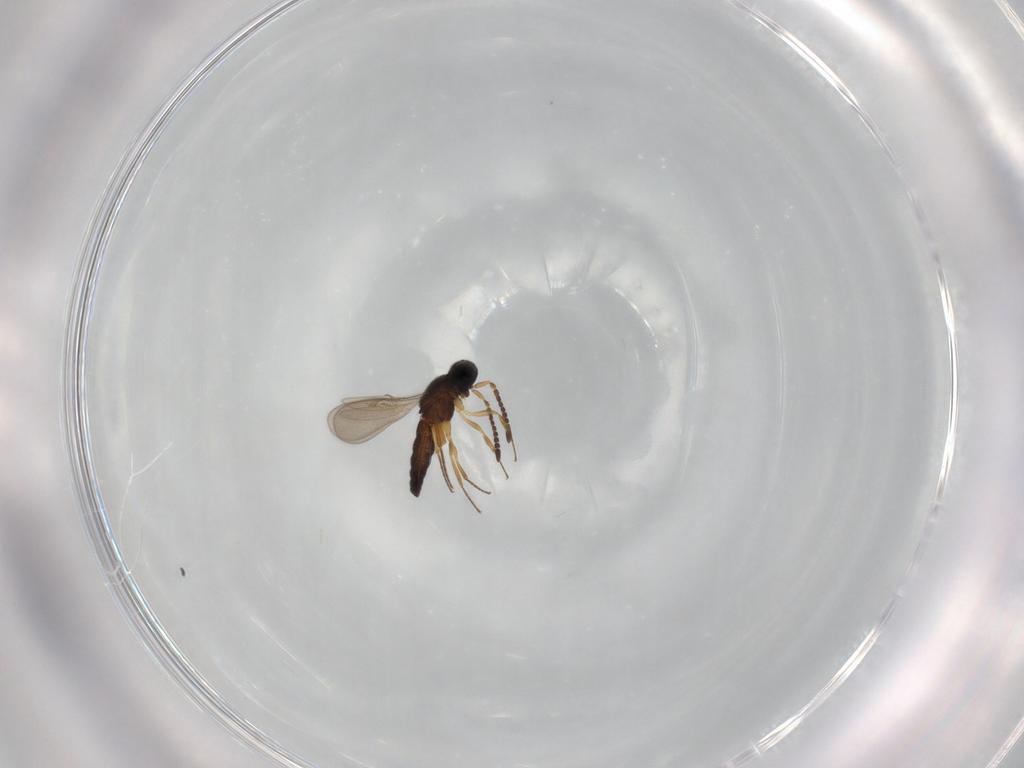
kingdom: Animalia
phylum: Arthropoda
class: Insecta
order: Hymenoptera
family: Scelionidae
